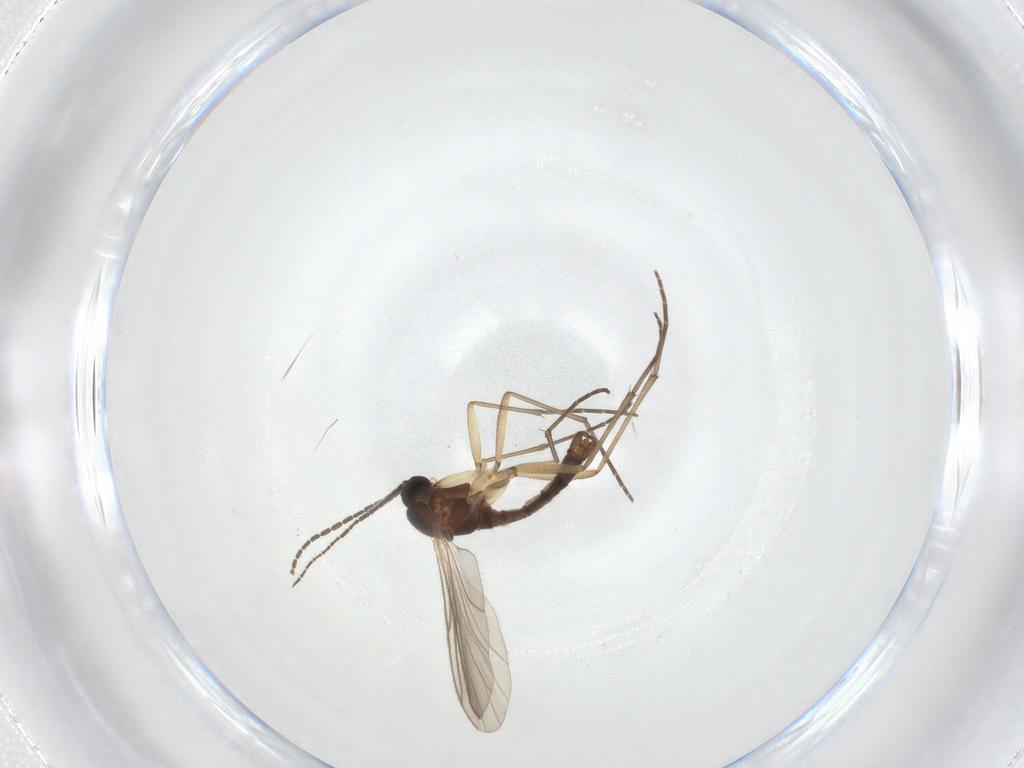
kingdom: Animalia
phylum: Arthropoda
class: Insecta
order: Diptera
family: Sciaridae
